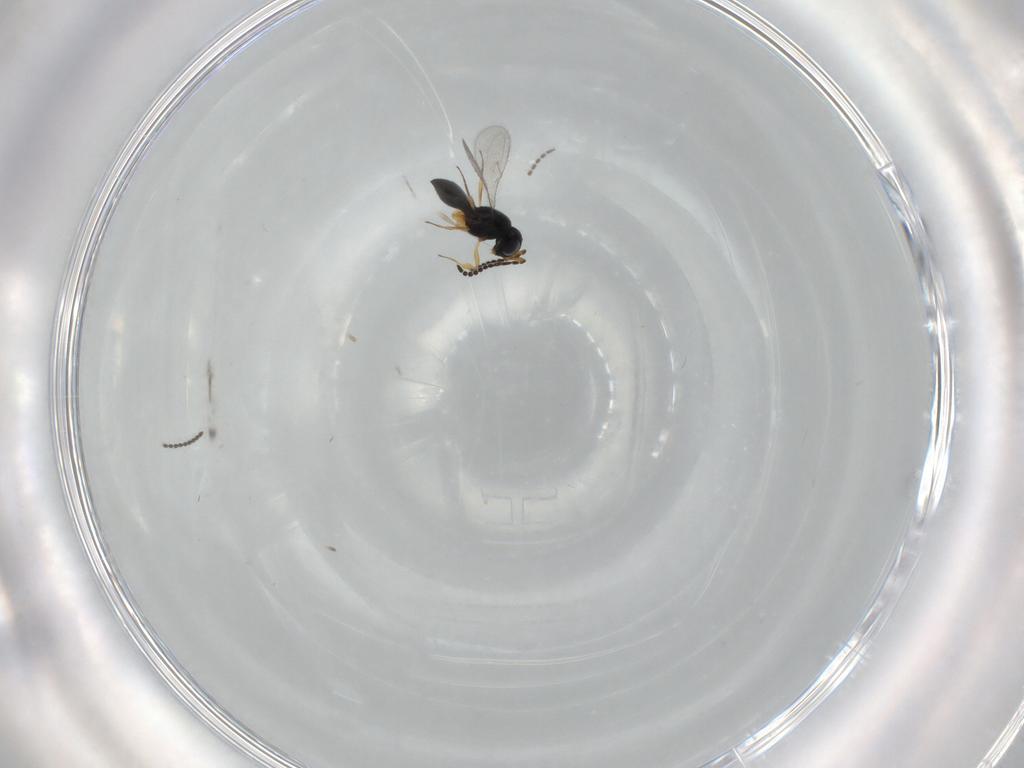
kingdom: Animalia
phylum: Arthropoda
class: Insecta
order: Hymenoptera
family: Scelionidae
